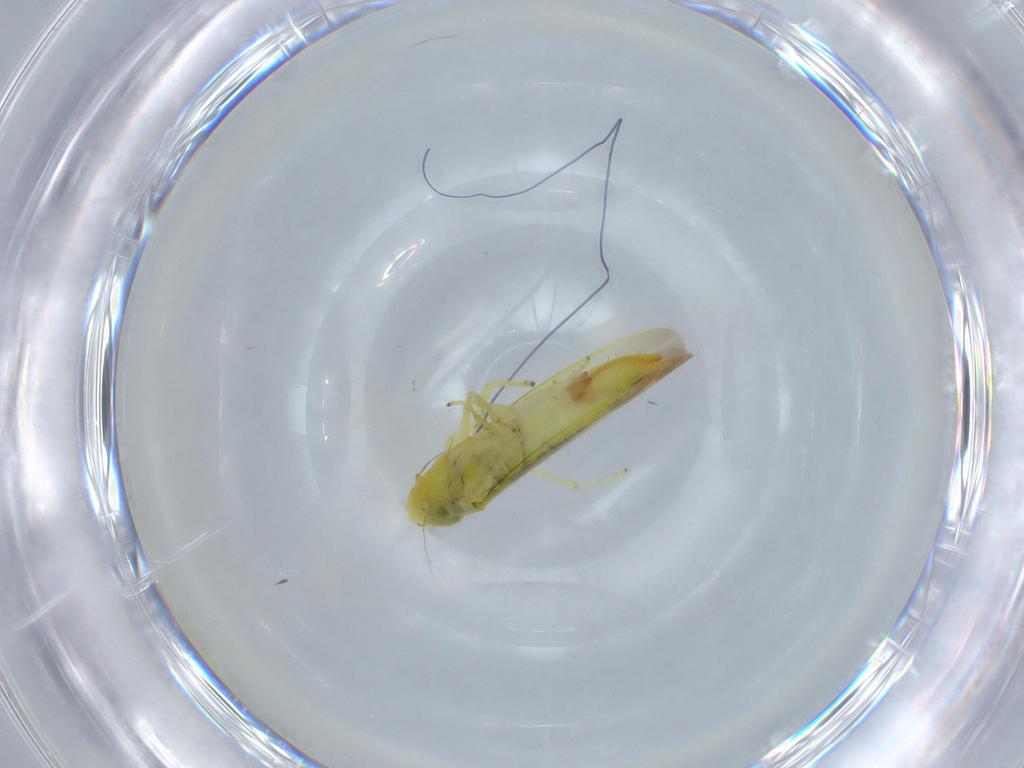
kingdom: Animalia
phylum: Arthropoda
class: Insecta
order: Hemiptera
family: Cicadellidae
